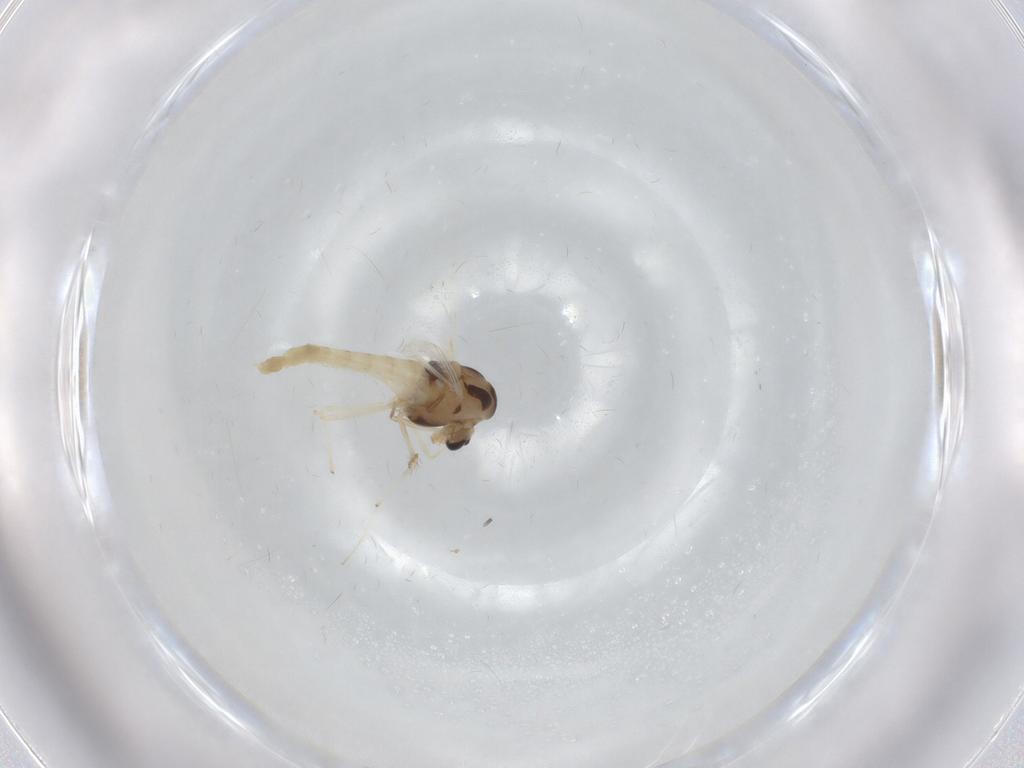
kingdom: Animalia
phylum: Arthropoda
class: Insecta
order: Diptera
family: Chironomidae
